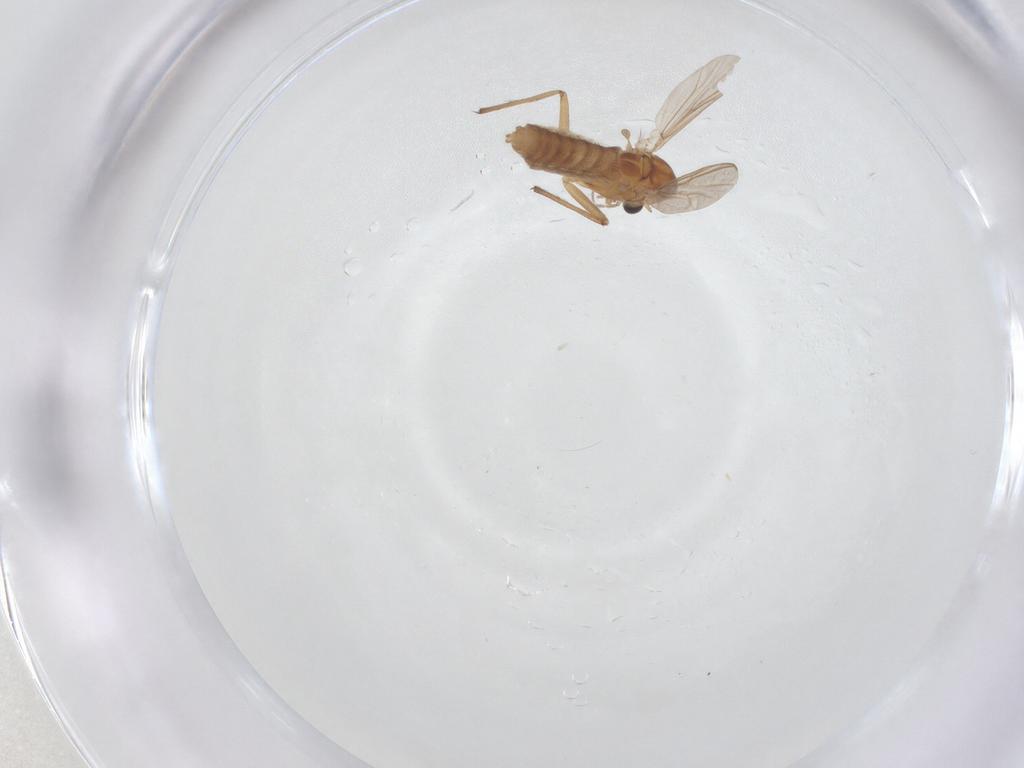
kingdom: Animalia
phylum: Arthropoda
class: Insecta
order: Diptera
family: Chironomidae
